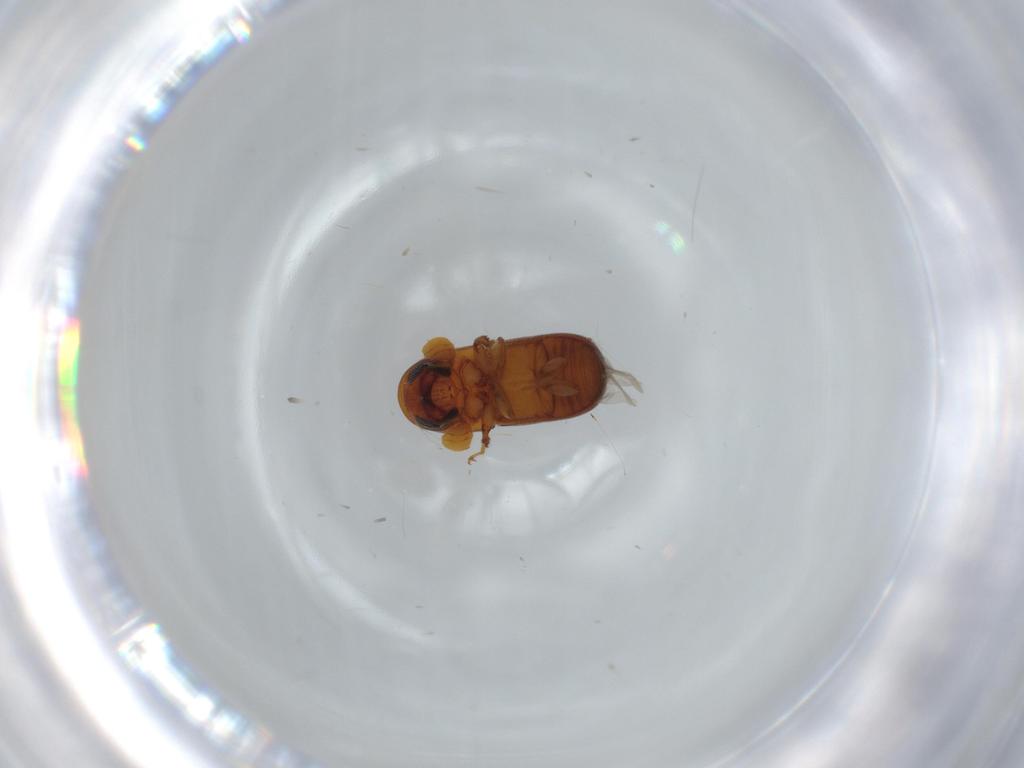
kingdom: Animalia
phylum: Arthropoda
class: Insecta
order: Coleoptera
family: Curculionidae
